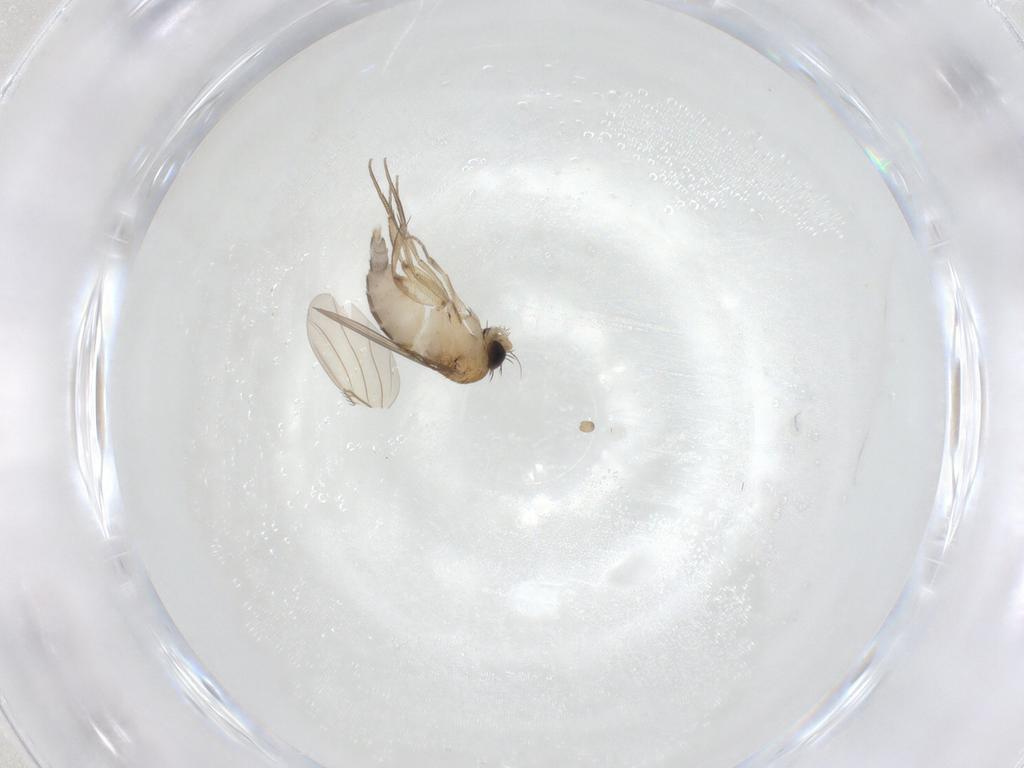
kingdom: Animalia
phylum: Arthropoda
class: Insecta
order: Diptera
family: Phoridae
